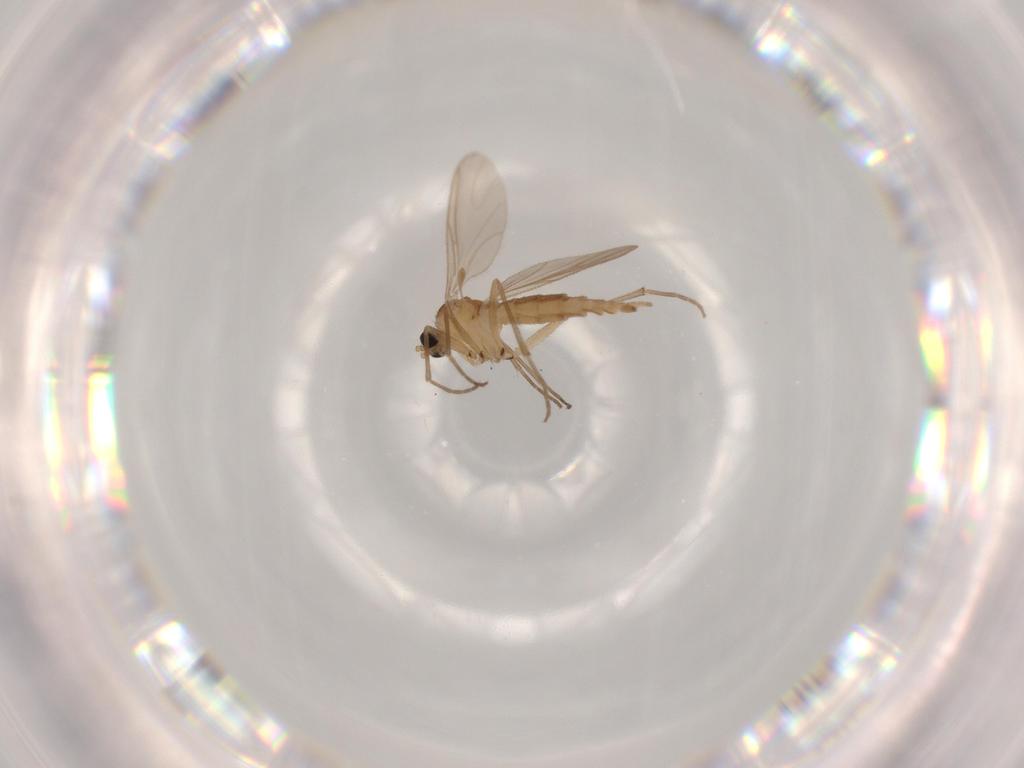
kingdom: Animalia
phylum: Arthropoda
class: Insecta
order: Diptera
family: Sciaridae
